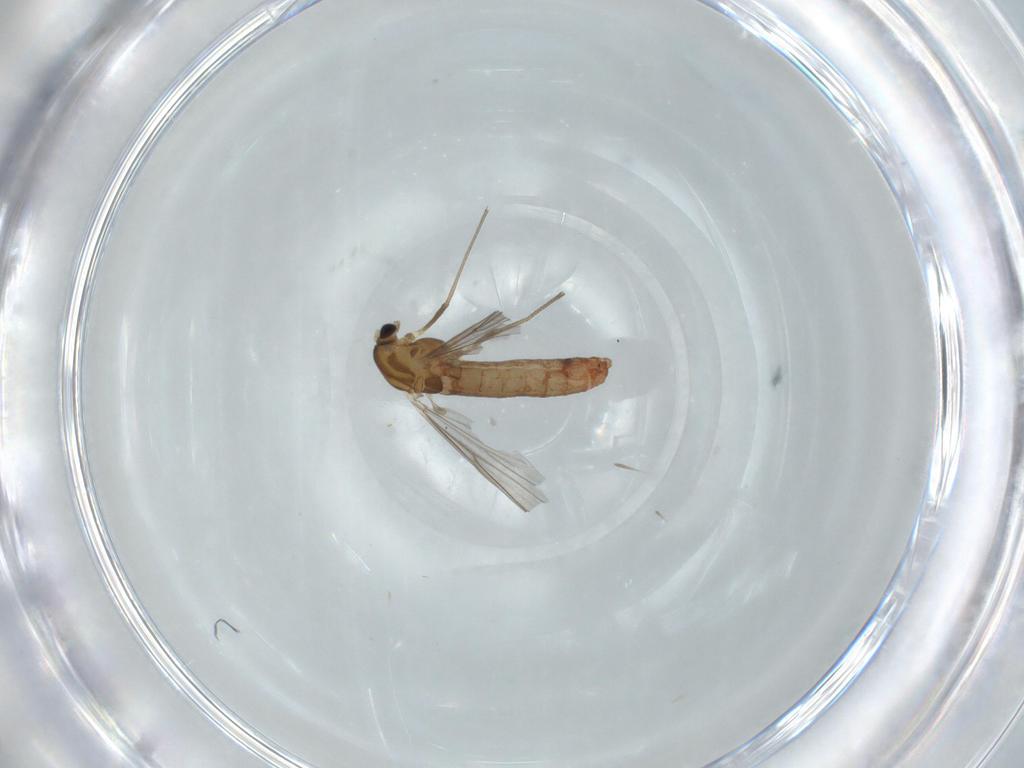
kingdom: Animalia
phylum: Arthropoda
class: Insecta
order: Diptera
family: Chironomidae
